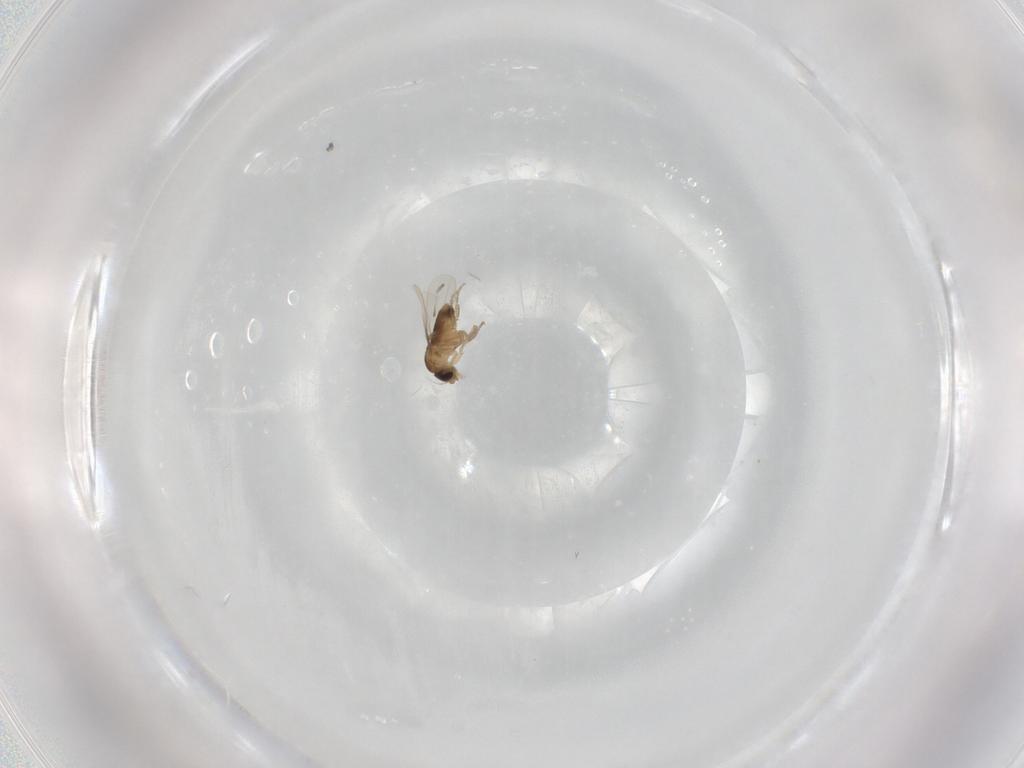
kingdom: Animalia
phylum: Arthropoda
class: Insecta
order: Diptera
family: Phoridae
